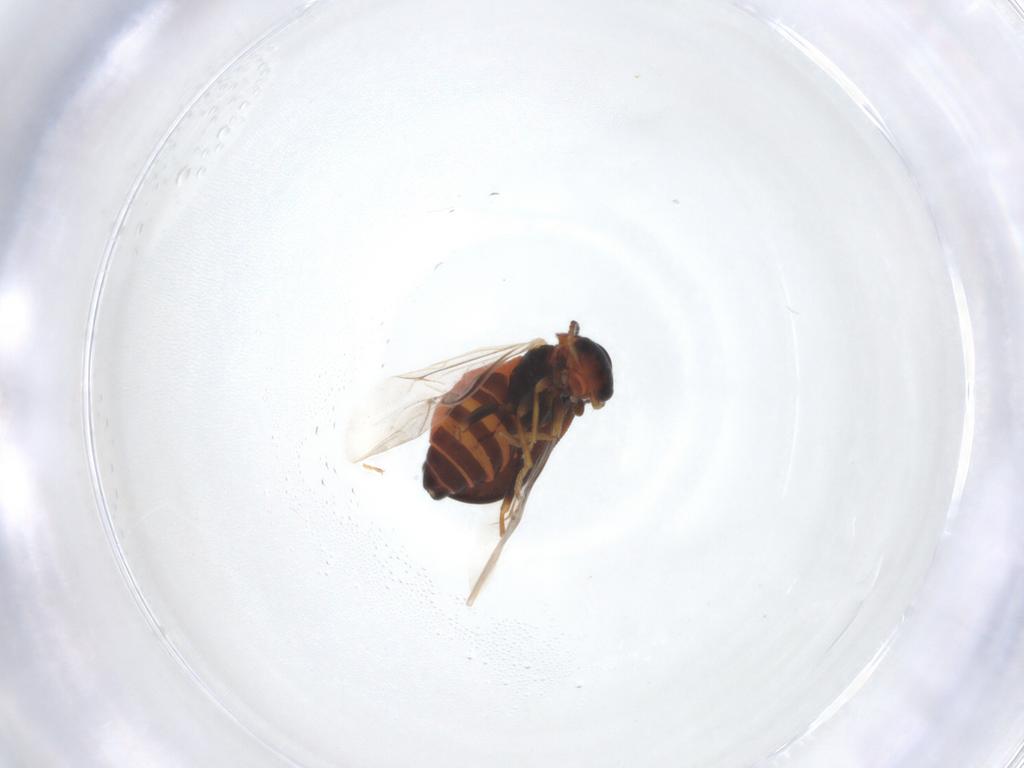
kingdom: Animalia
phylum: Arthropoda
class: Insecta
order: Coleoptera
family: Melyridae
